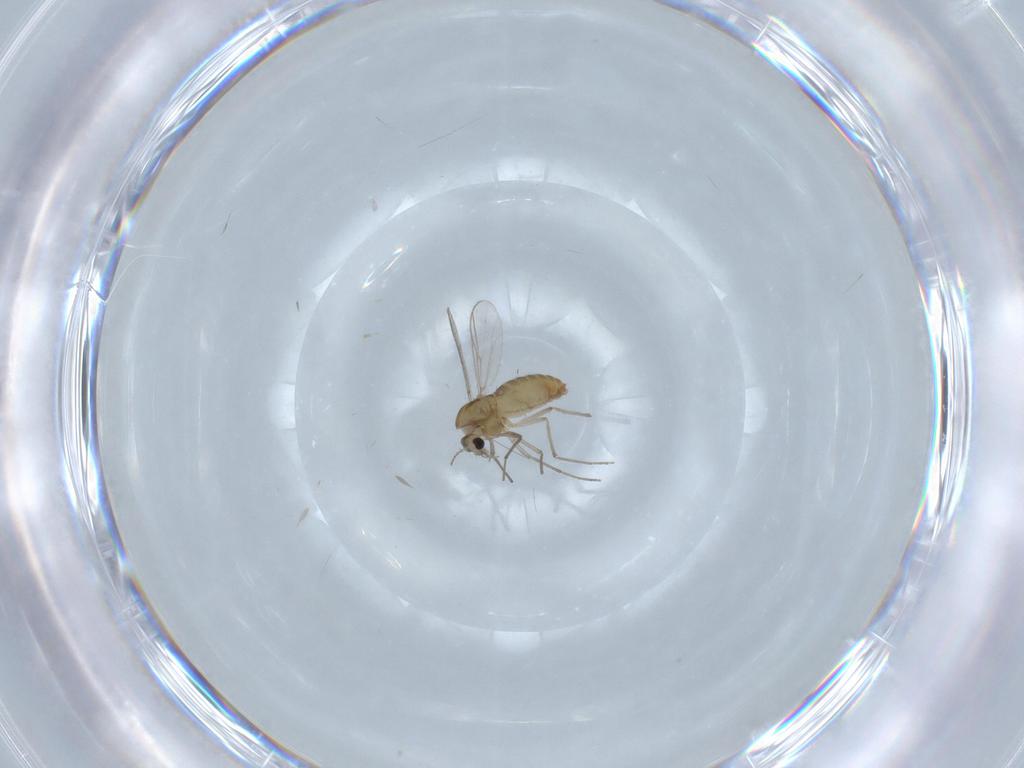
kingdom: Animalia
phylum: Arthropoda
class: Insecta
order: Diptera
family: Chironomidae
